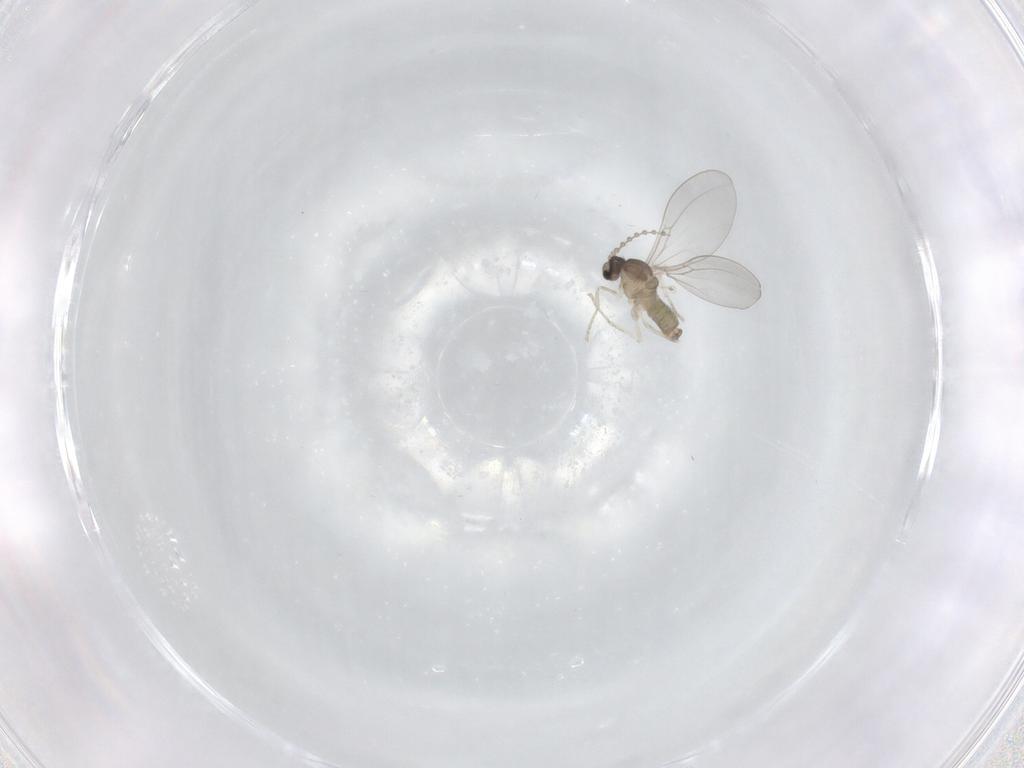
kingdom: Animalia
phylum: Arthropoda
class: Insecta
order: Diptera
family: Cecidomyiidae
